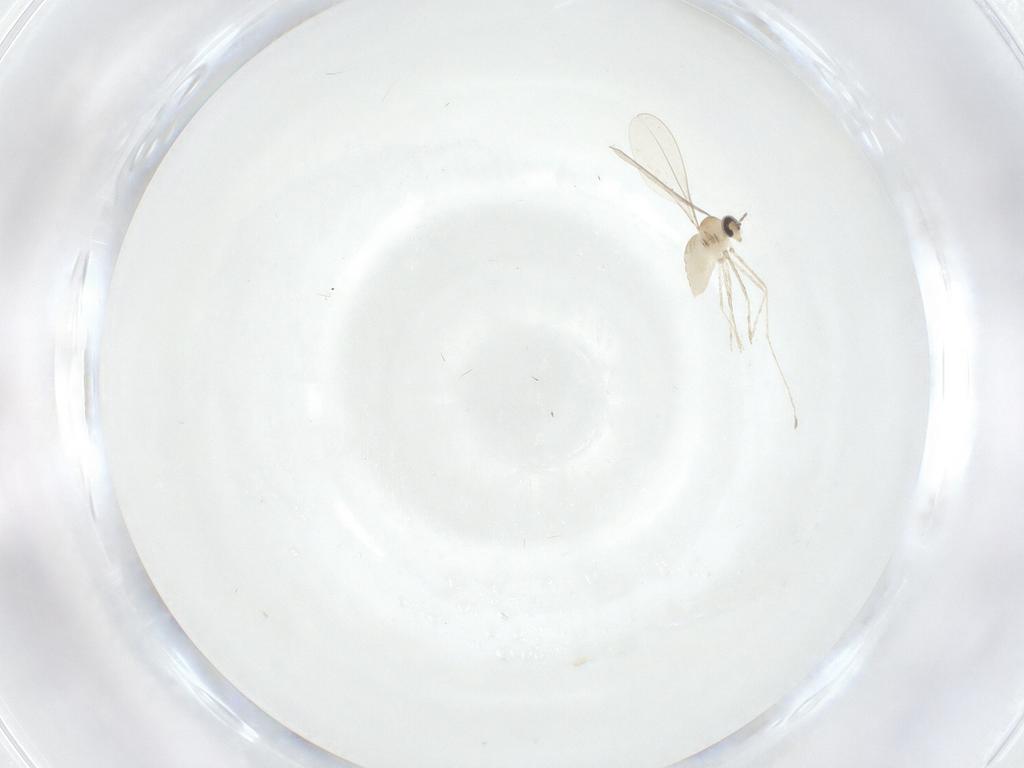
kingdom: Animalia
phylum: Arthropoda
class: Insecta
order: Diptera
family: Cecidomyiidae
